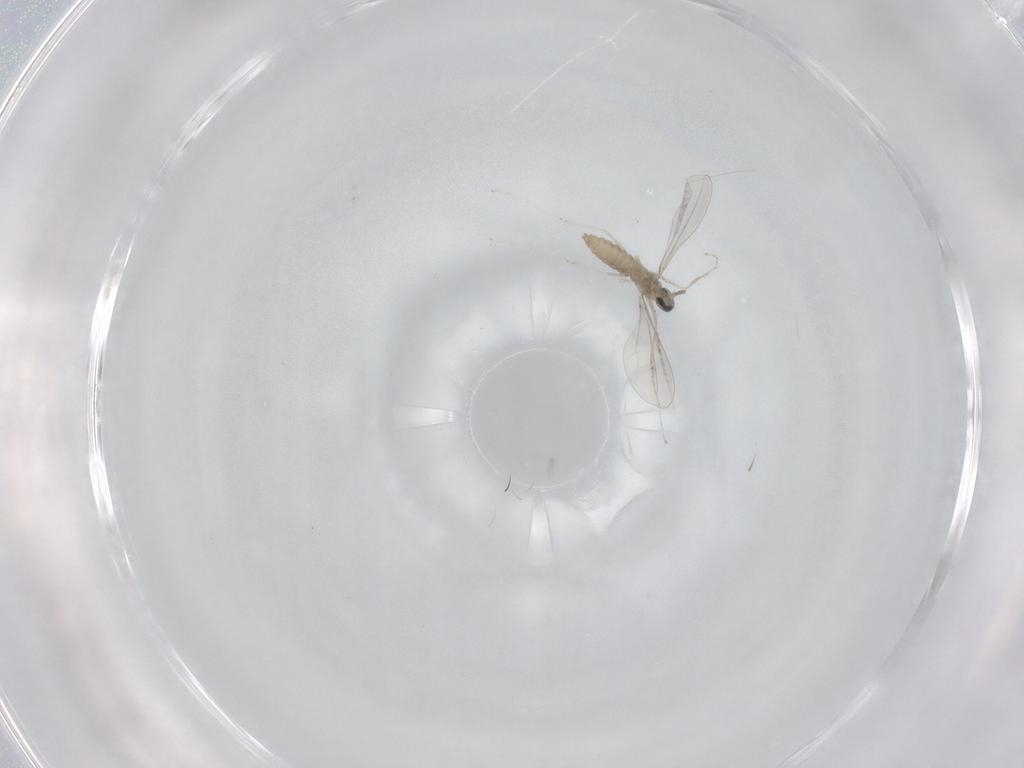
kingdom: Animalia
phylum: Arthropoda
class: Insecta
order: Diptera
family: Cecidomyiidae
